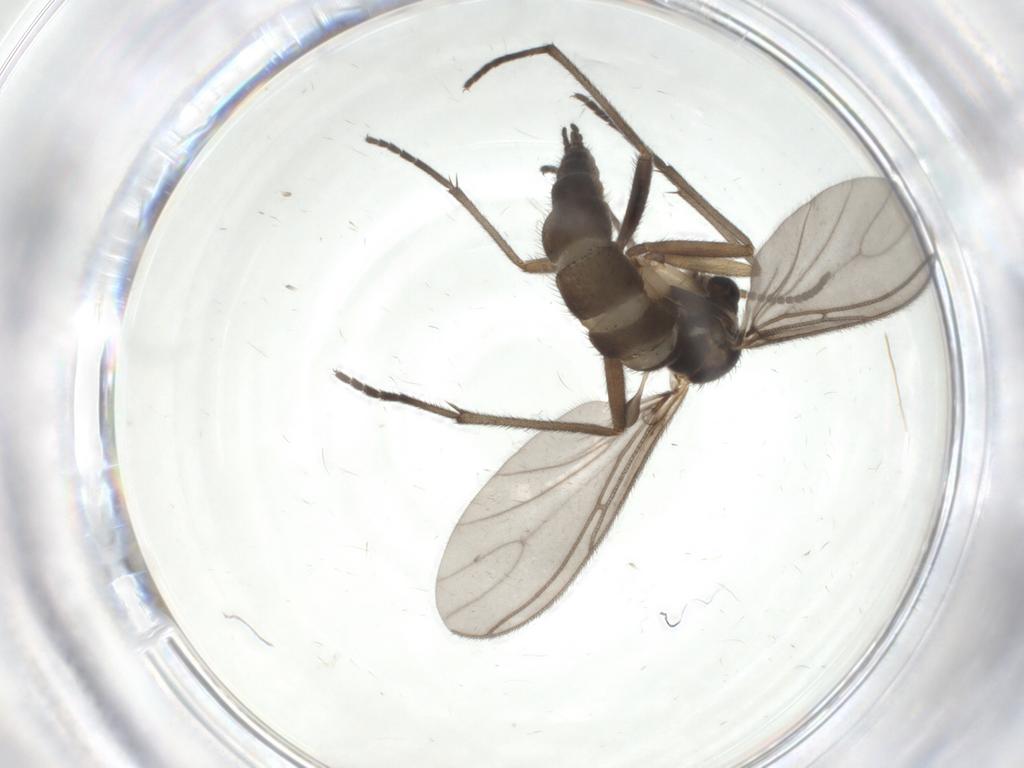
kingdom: Animalia
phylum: Arthropoda
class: Insecta
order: Diptera
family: Sciaridae
